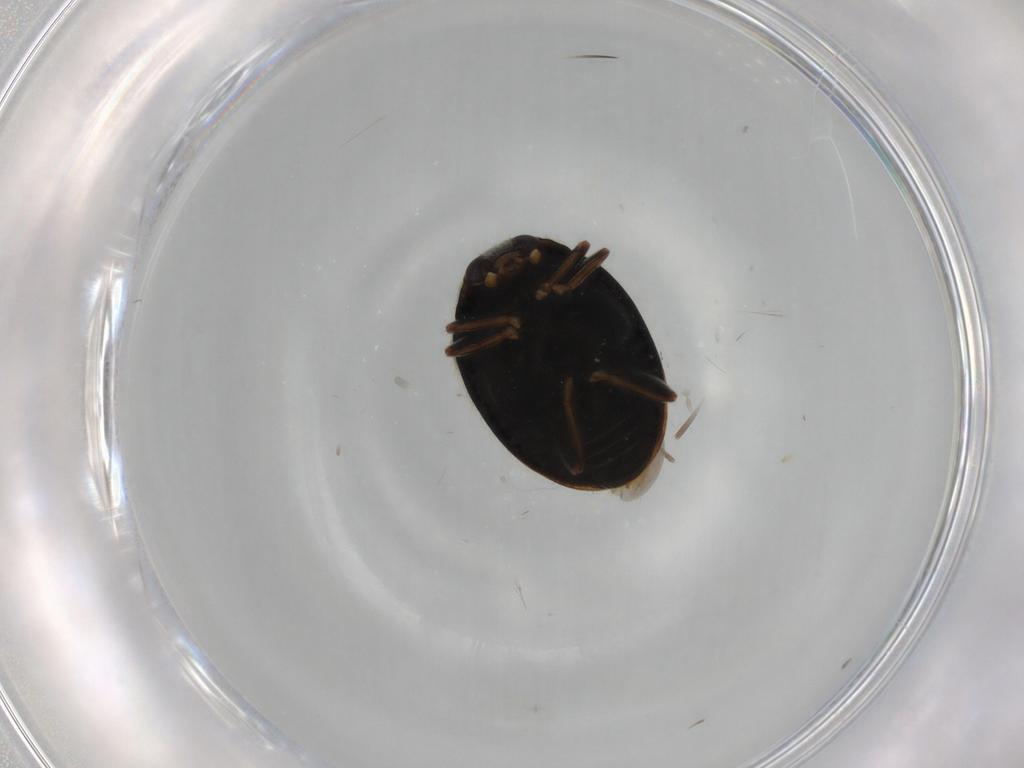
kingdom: Animalia
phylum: Arthropoda
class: Insecta
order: Coleoptera
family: Coccinellidae
